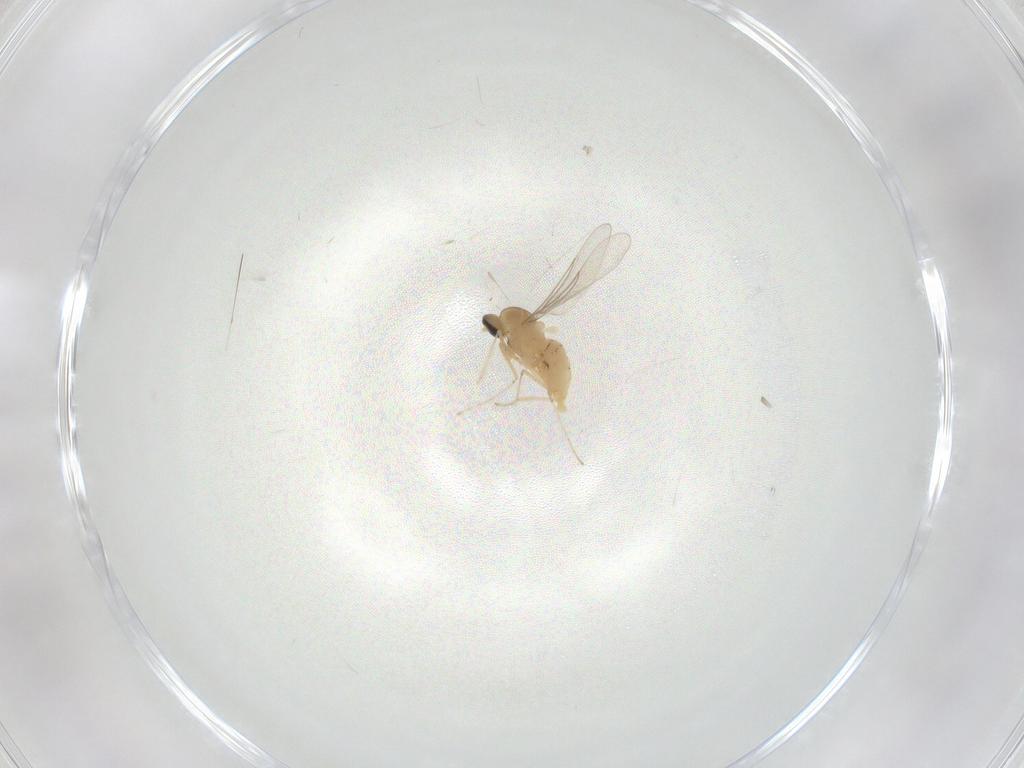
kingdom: Animalia
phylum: Arthropoda
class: Insecta
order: Diptera
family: Cecidomyiidae
